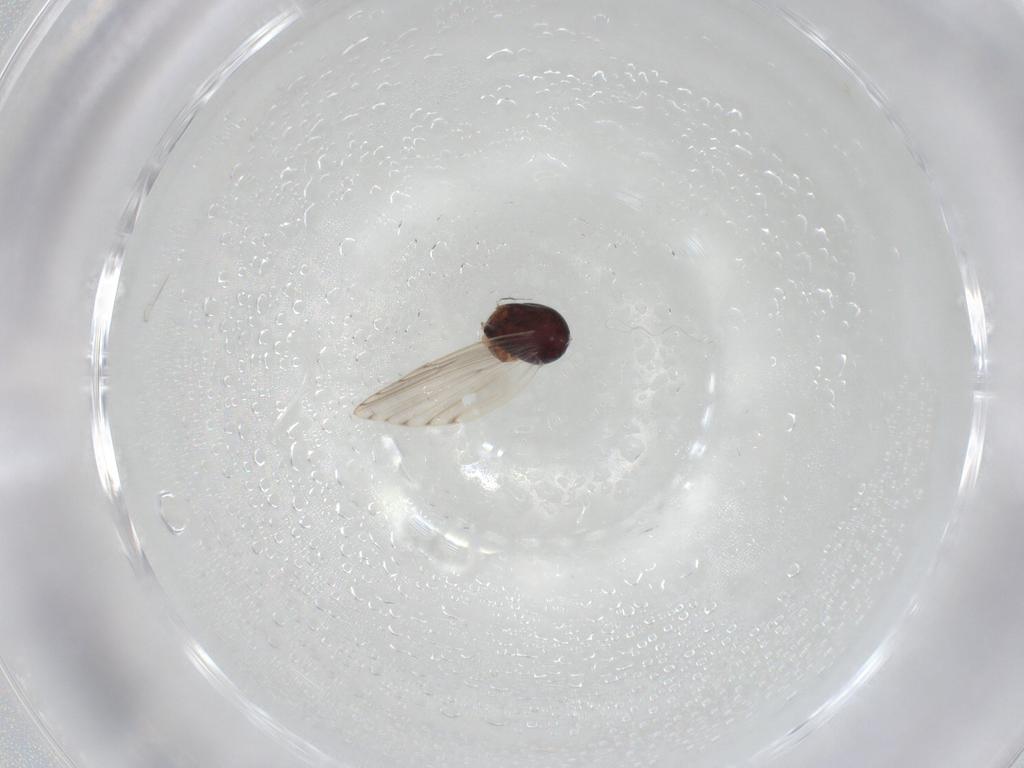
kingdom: Animalia
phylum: Arthropoda
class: Arachnida
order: Sarcoptiformes
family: Galumnidae
